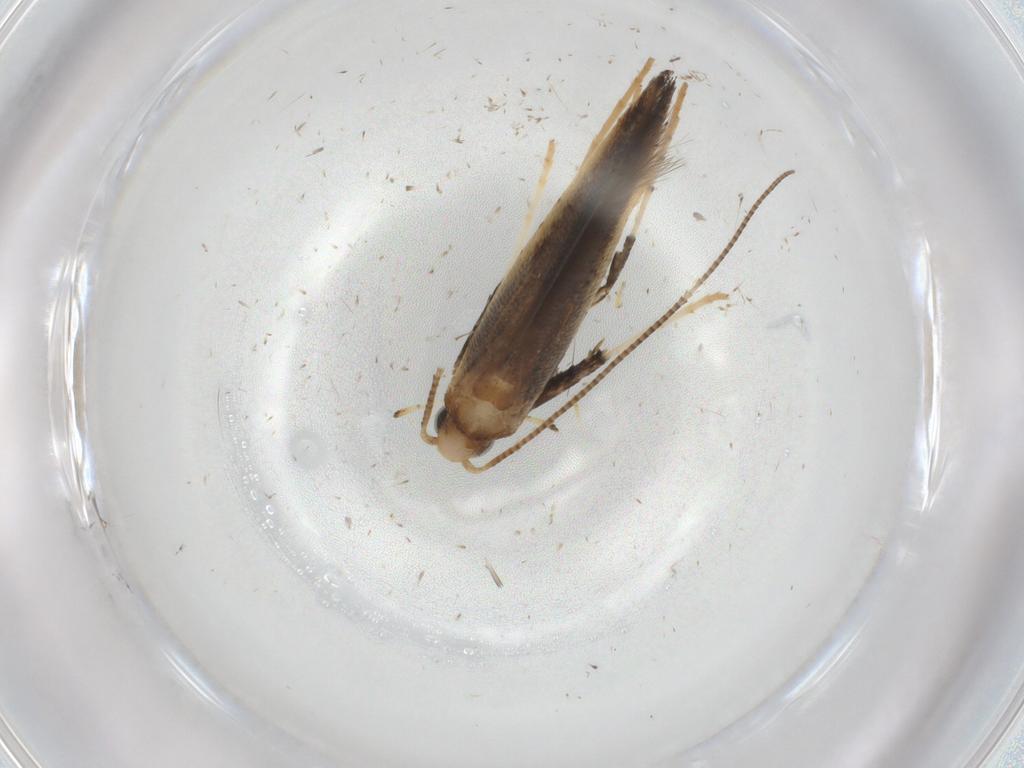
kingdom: Animalia
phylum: Arthropoda
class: Insecta
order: Lepidoptera
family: Gracillariidae
